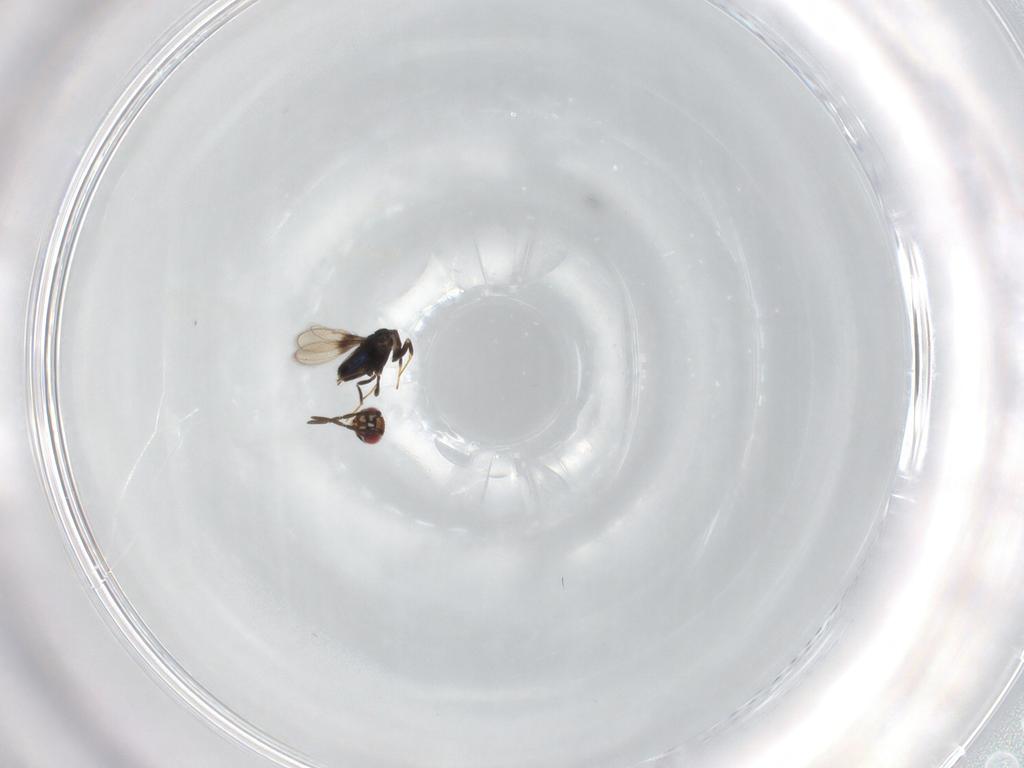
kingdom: Animalia
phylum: Arthropoda
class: Insecta
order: Hymenoptera
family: Azotidae
